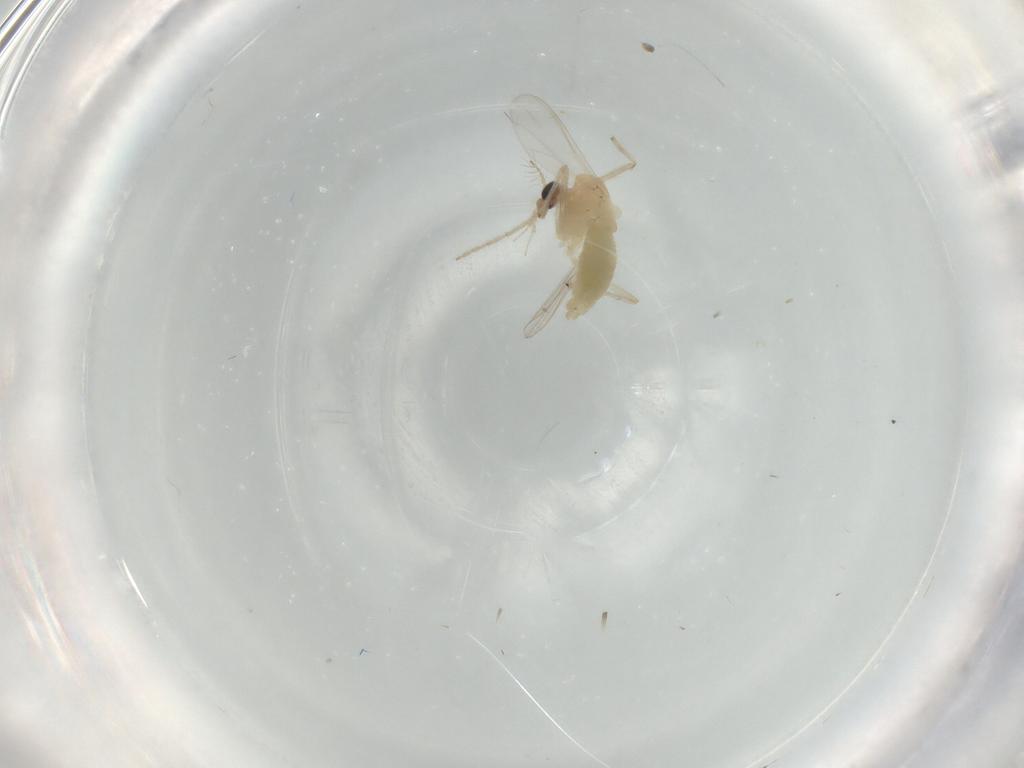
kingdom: Animalia
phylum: Arthropoda
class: Insecta
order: Diptera
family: Chironomidae
